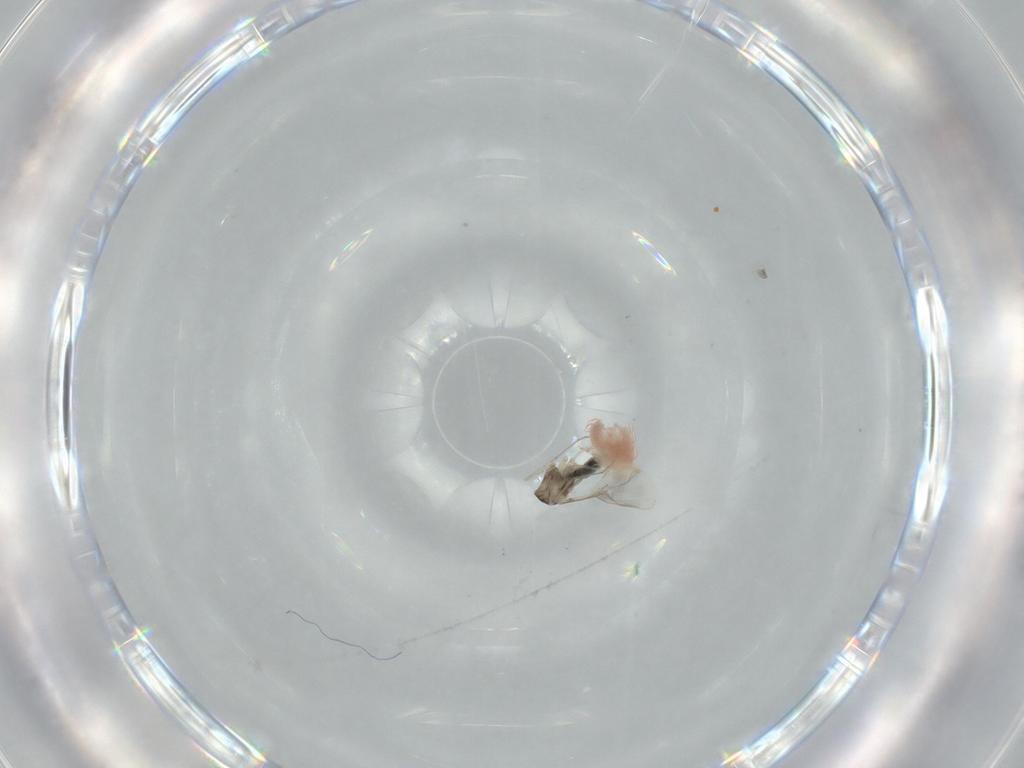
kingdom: Animalia
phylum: Arthropoda
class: Insecta
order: Diptera
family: Ceratopogonidae
